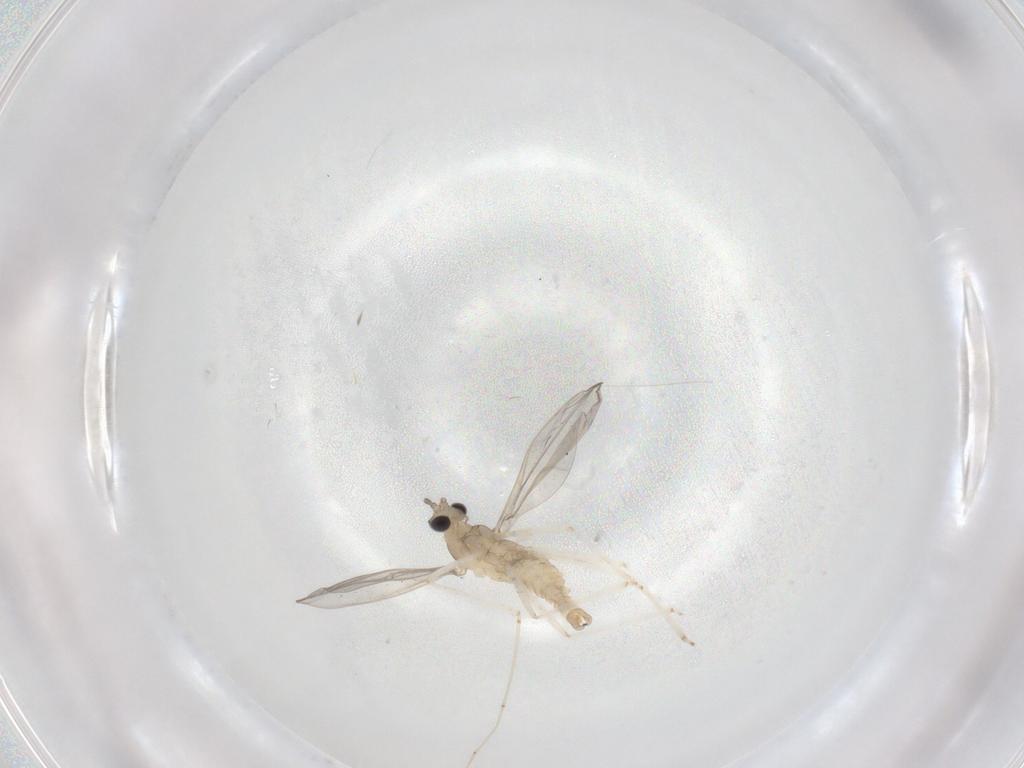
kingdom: Animalia
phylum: Arthropoda
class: Insecta
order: Diptera
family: Cecidomyiidae
